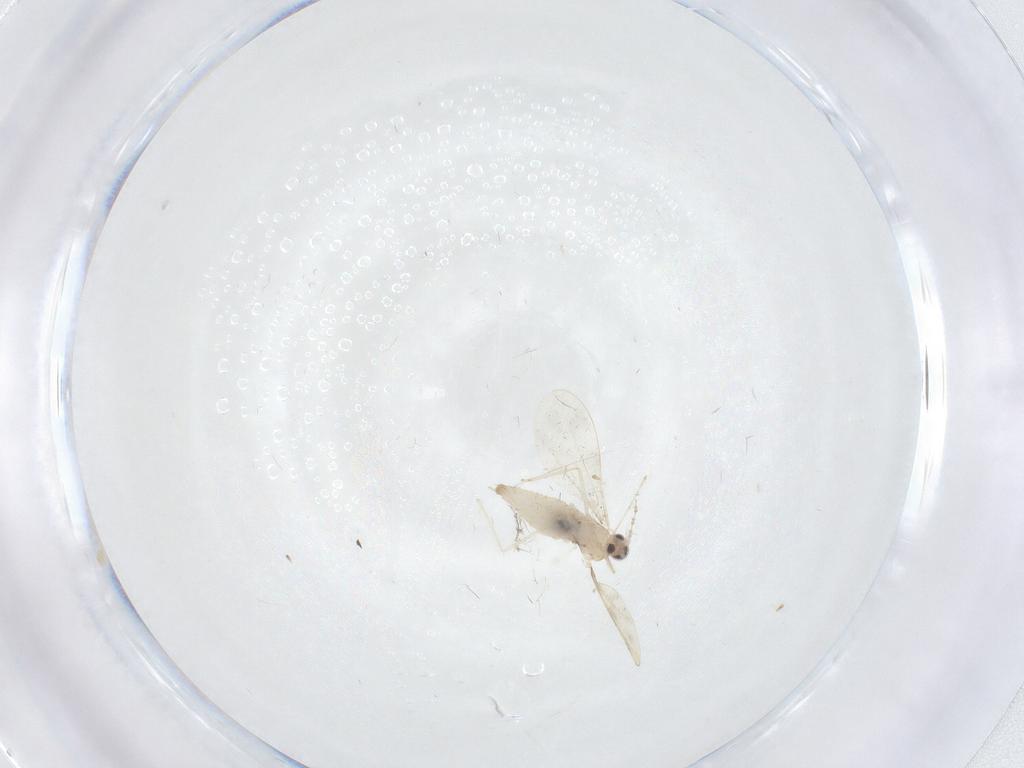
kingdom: Animalia
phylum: Arthropoda
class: Insecta
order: Diptera
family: Cecidomyiidae
